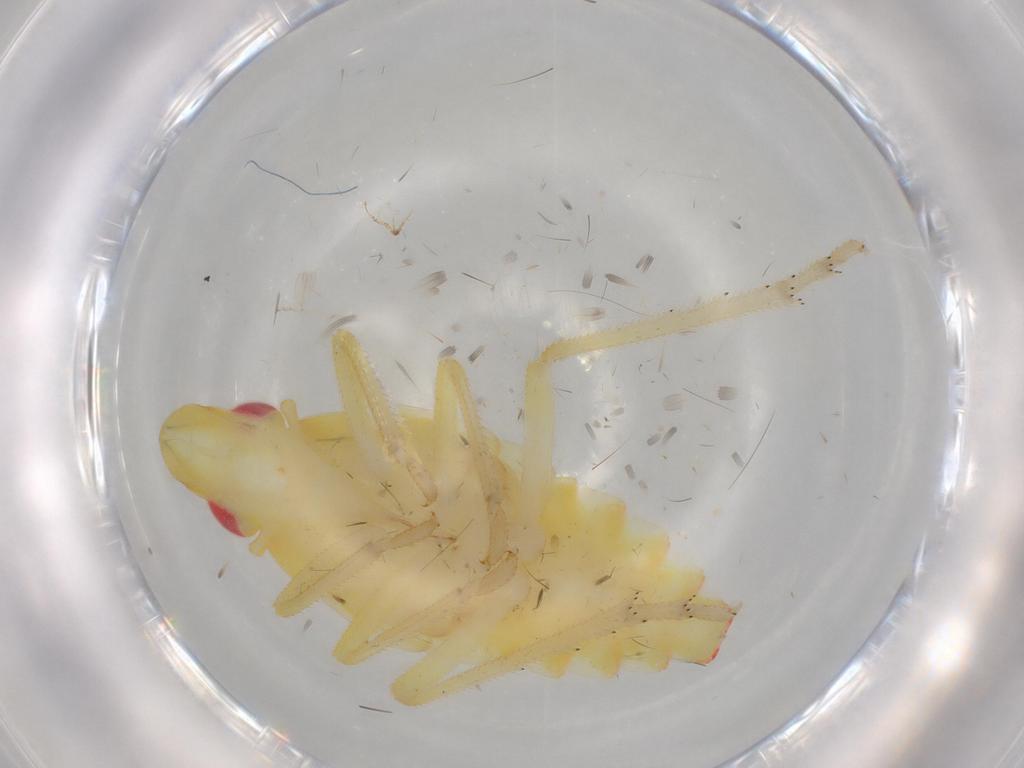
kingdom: Animalia
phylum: Arthropoda
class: Insecta
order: Hemiptera
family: Tropiduchidae
